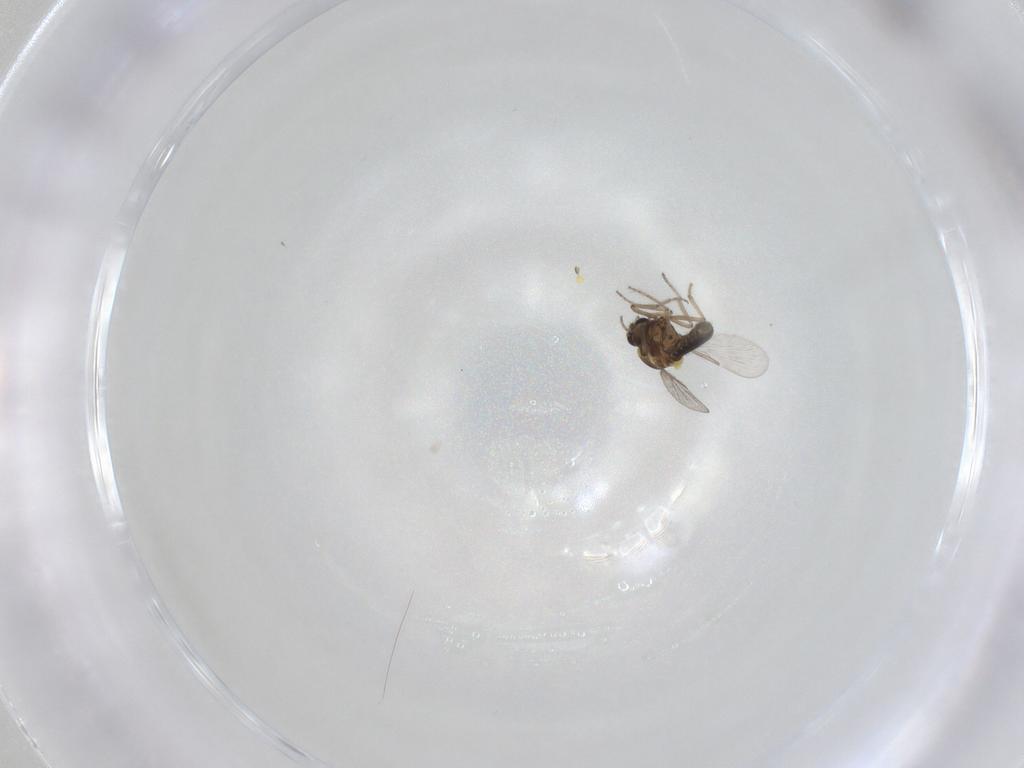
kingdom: Animalia
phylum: Arthropoda
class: Insecta
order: Diptera
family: Ceratopogonidae
